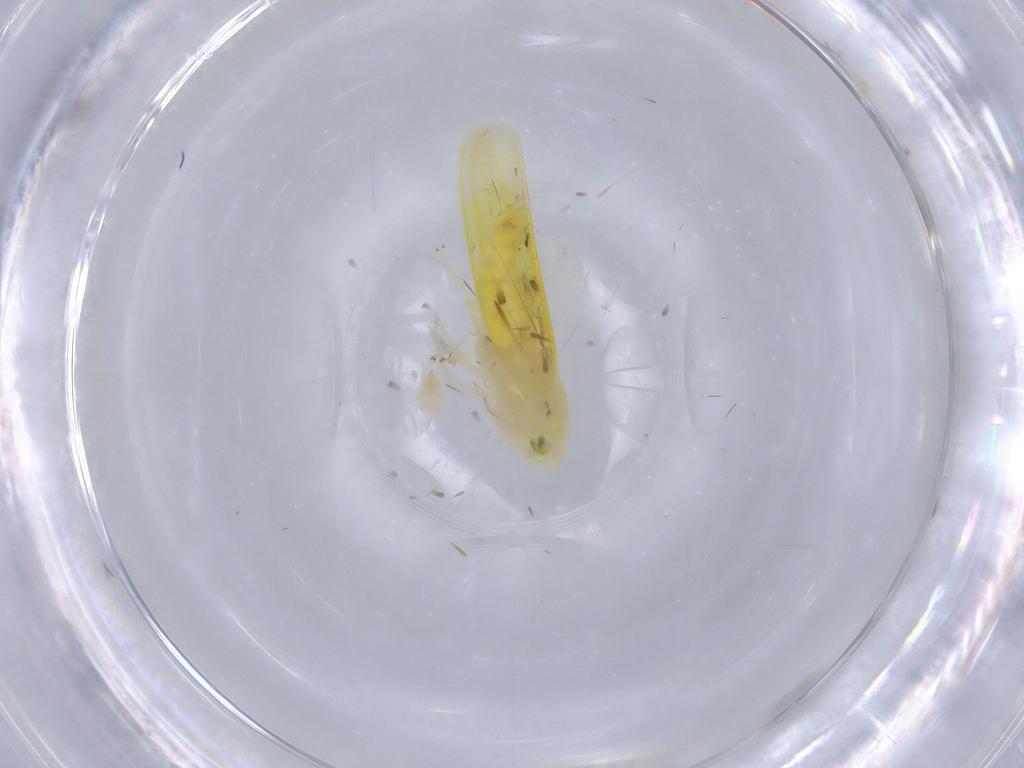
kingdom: Animalia
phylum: Arthropoda
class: Insecta
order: Hemiptera
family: Cicadellidae
